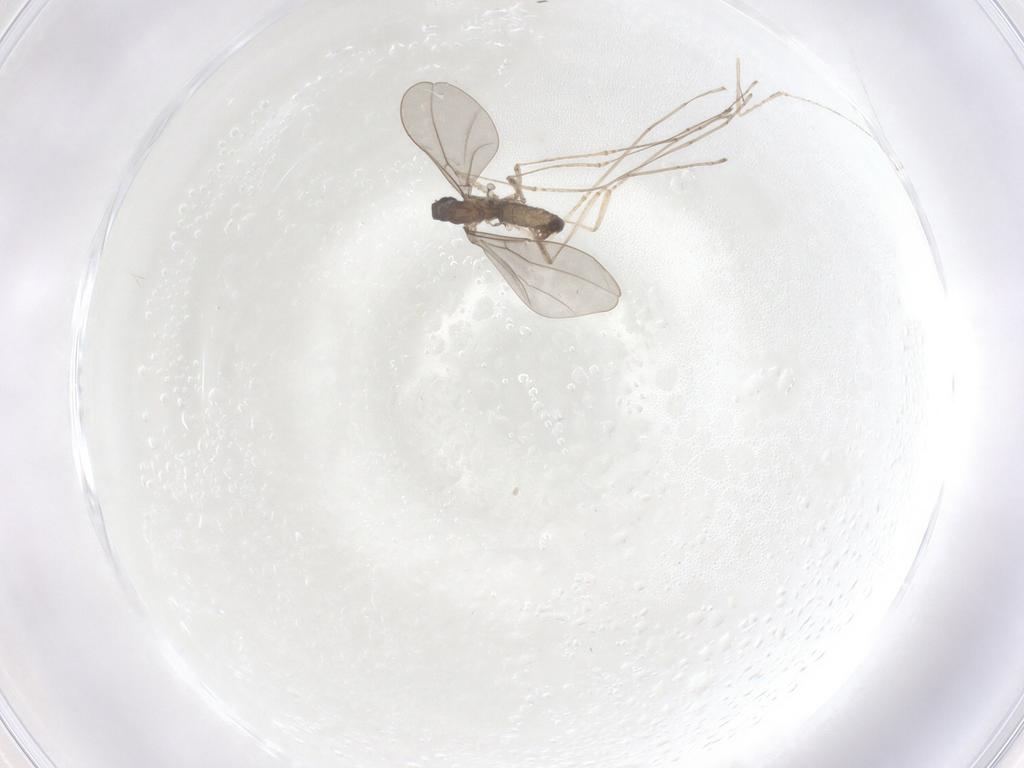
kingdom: Animalia
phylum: Arthropoda
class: Insecta
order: Diptera
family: Cecidomyiidae
